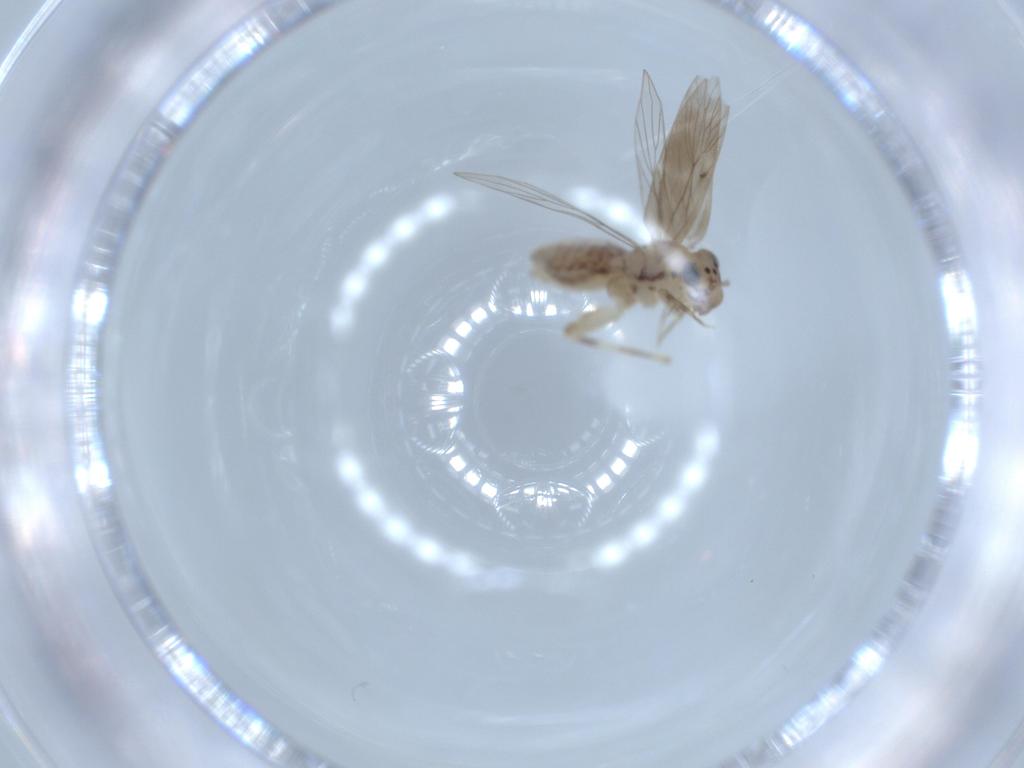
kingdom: Animalia
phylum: Arthropoda
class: Insecta
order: Psocodea
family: Lepidopsocidae
